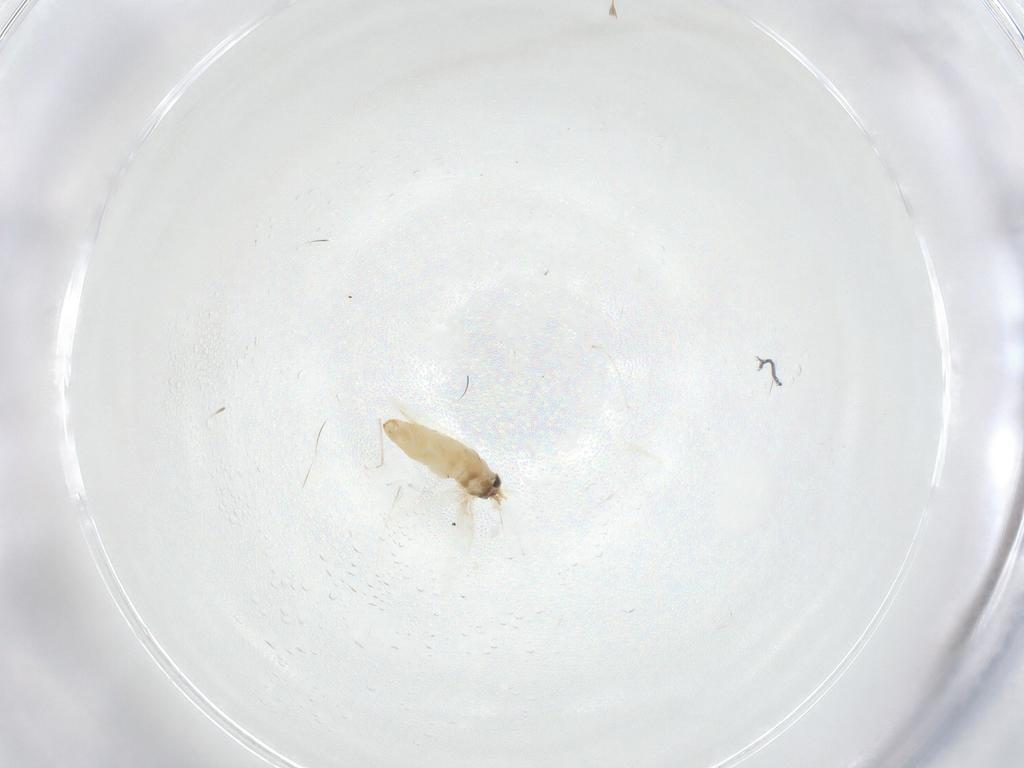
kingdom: Animalia
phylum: Arthropoda
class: Insecta
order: Lepidoptera
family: Crambidae
